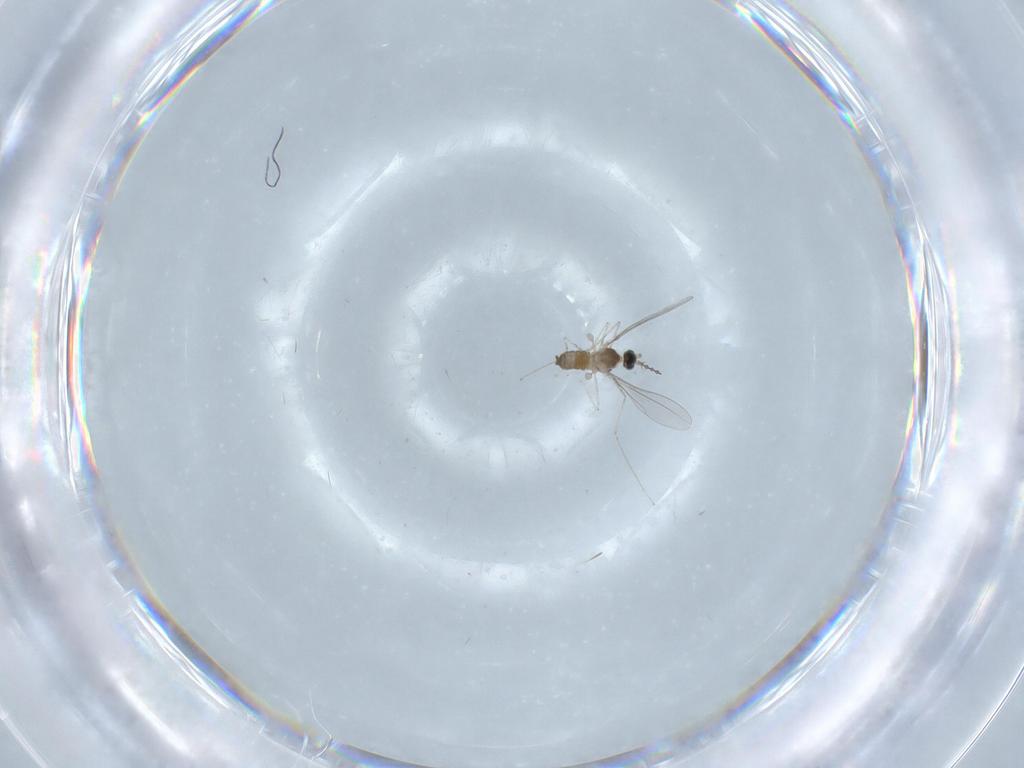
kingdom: Animalia
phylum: Arthropoda
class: Insecta
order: Diptera
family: Cecidomyiidae
